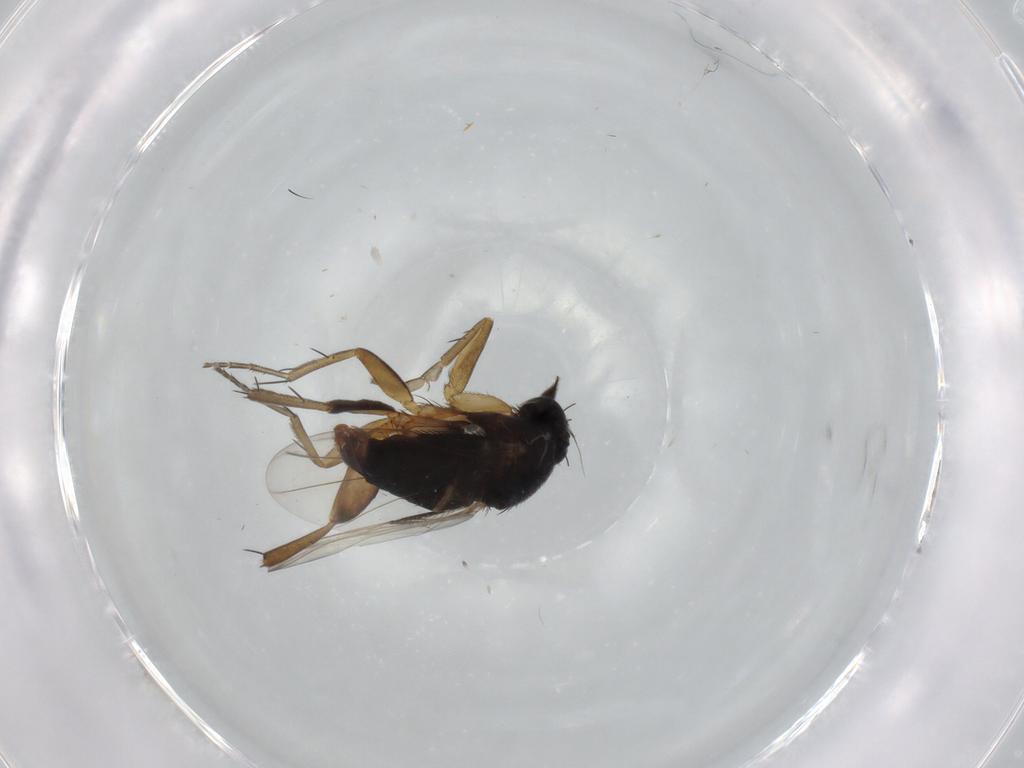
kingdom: Animalia
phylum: Arthropoda
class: Insecta
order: Diptera
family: Phoridae
